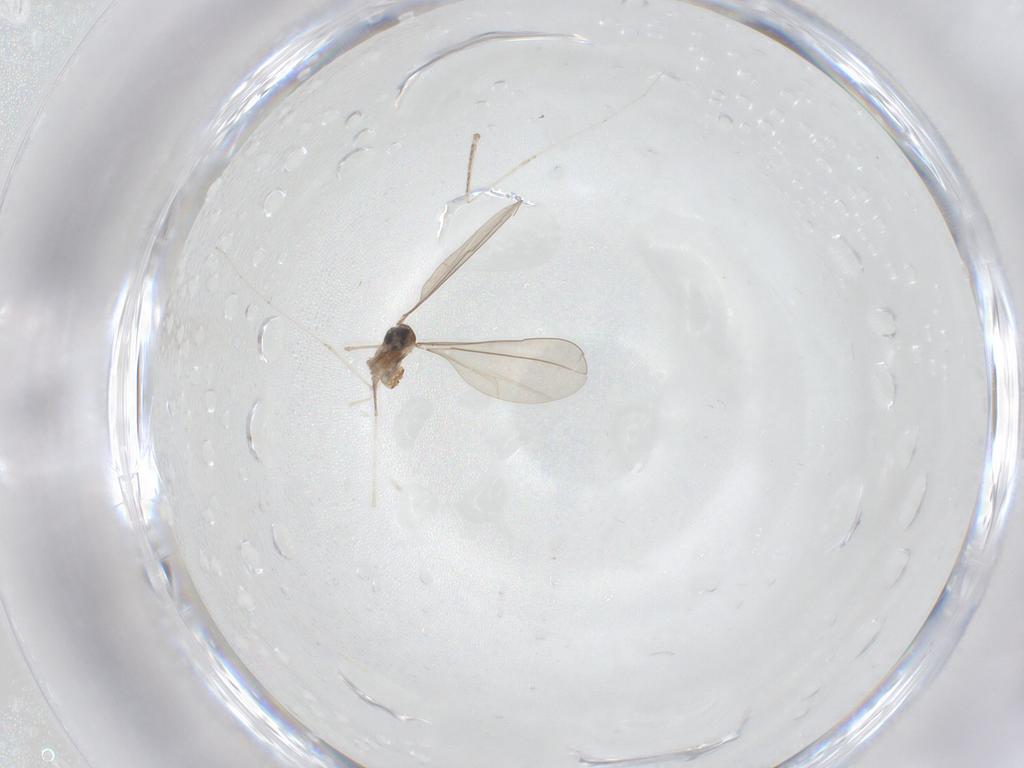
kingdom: Animalia
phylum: Arthropoda
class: Insecta
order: Diptera
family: Cecidomyiidae
